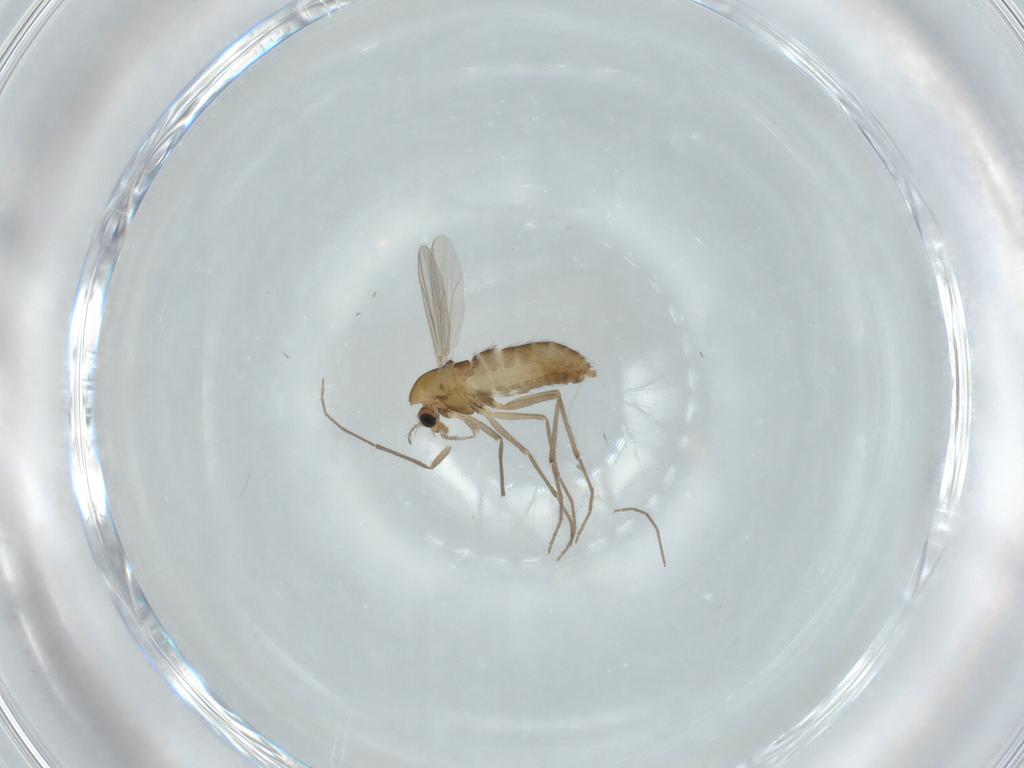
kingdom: Animalia
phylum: Arthropoda
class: Insecta
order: Diptera
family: Chironomidae
